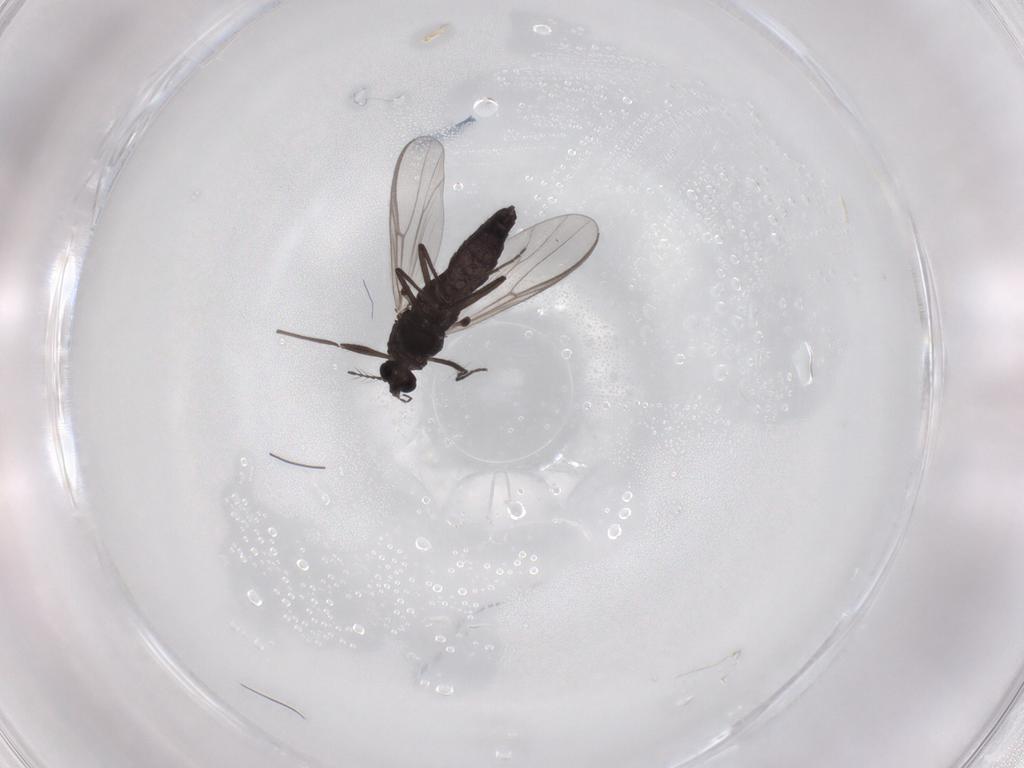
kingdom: Animalia
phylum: Arthropoda
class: Insecta
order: Diptera
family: Chironomidae
